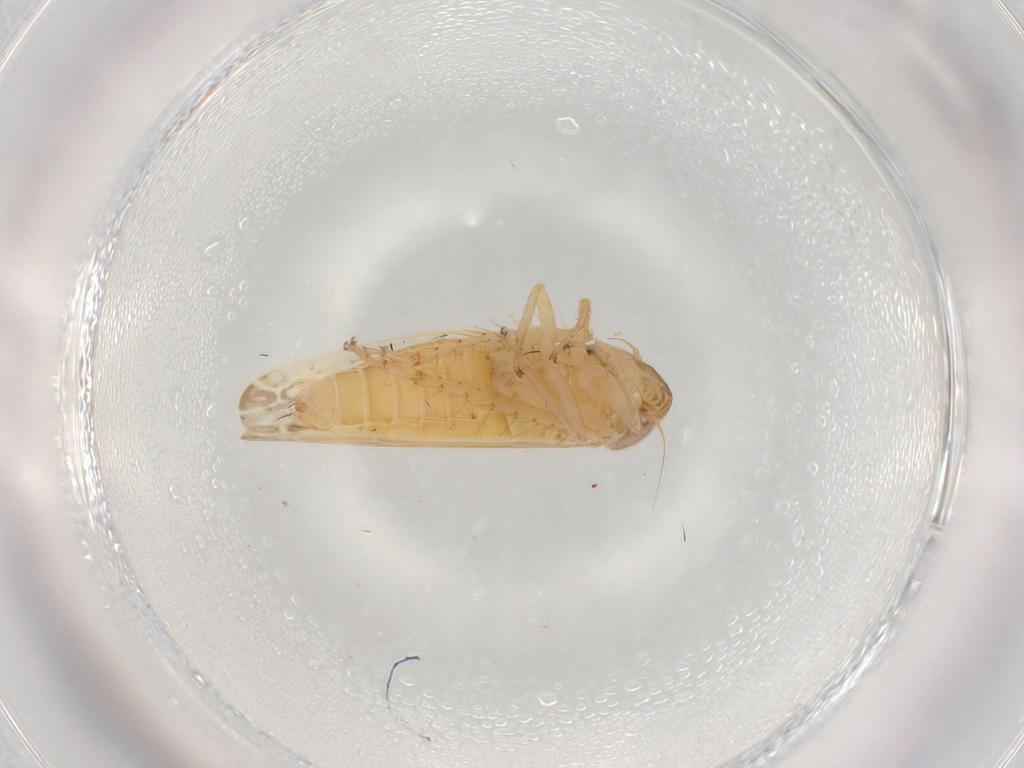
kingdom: Animalia
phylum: Arthropoda
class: Insecta
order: Hemiptera
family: Cicadellidae
